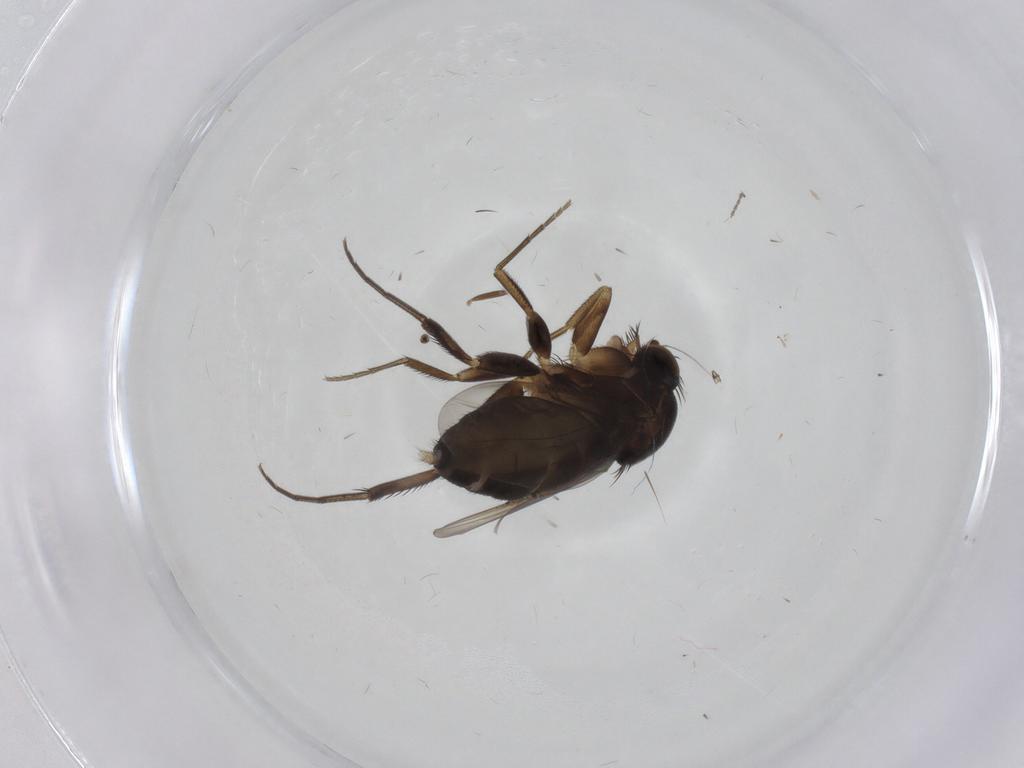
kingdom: Animalia
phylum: Arthropoda
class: Insecta
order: Diptera
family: Phoridae
